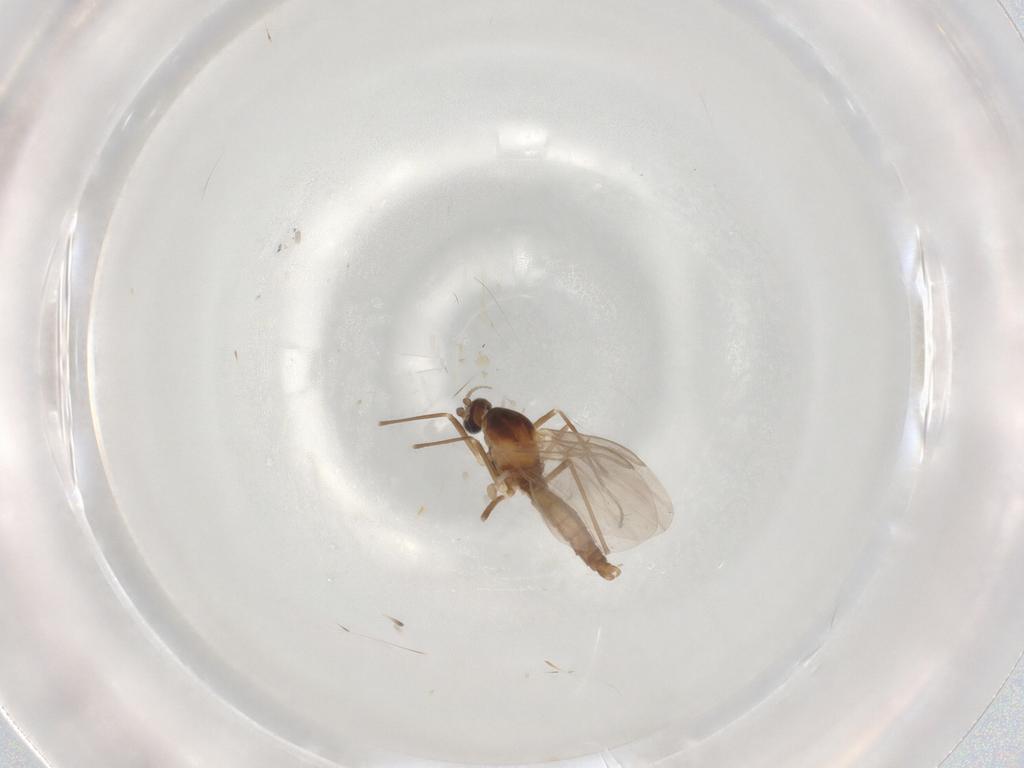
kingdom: Animalia
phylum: Arthropoda
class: Insecta
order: Diptera
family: Cecidomyiidae
